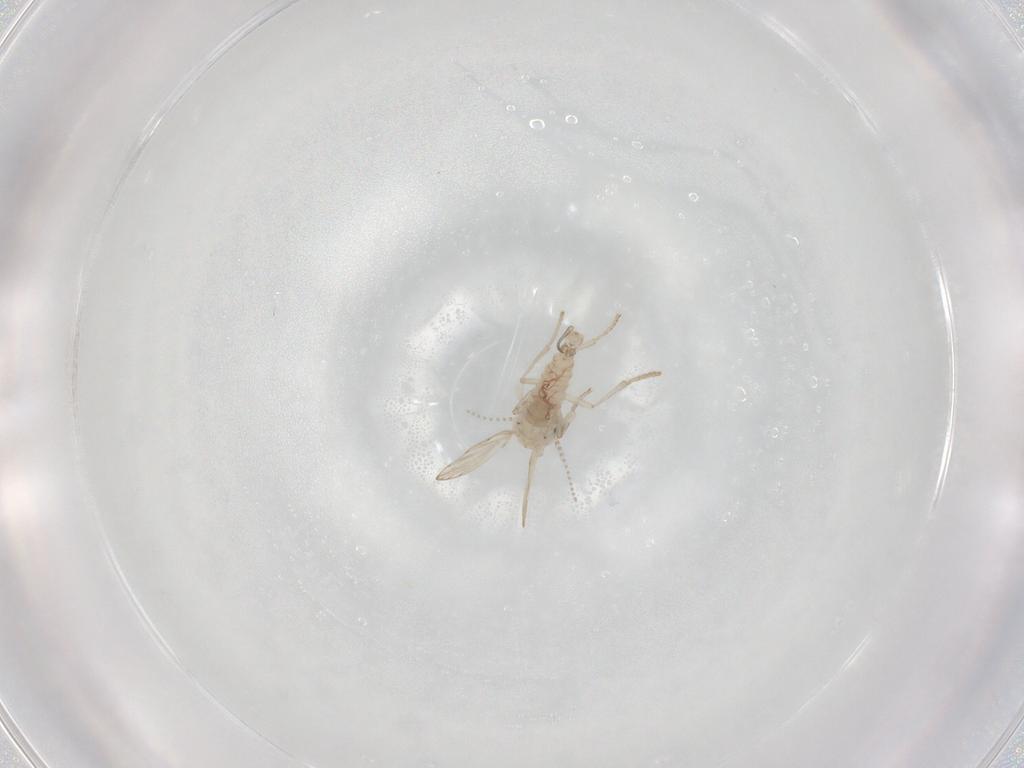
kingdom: Animalia
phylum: Arthropoda
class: Insecta
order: Diptera
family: Psychodidae
